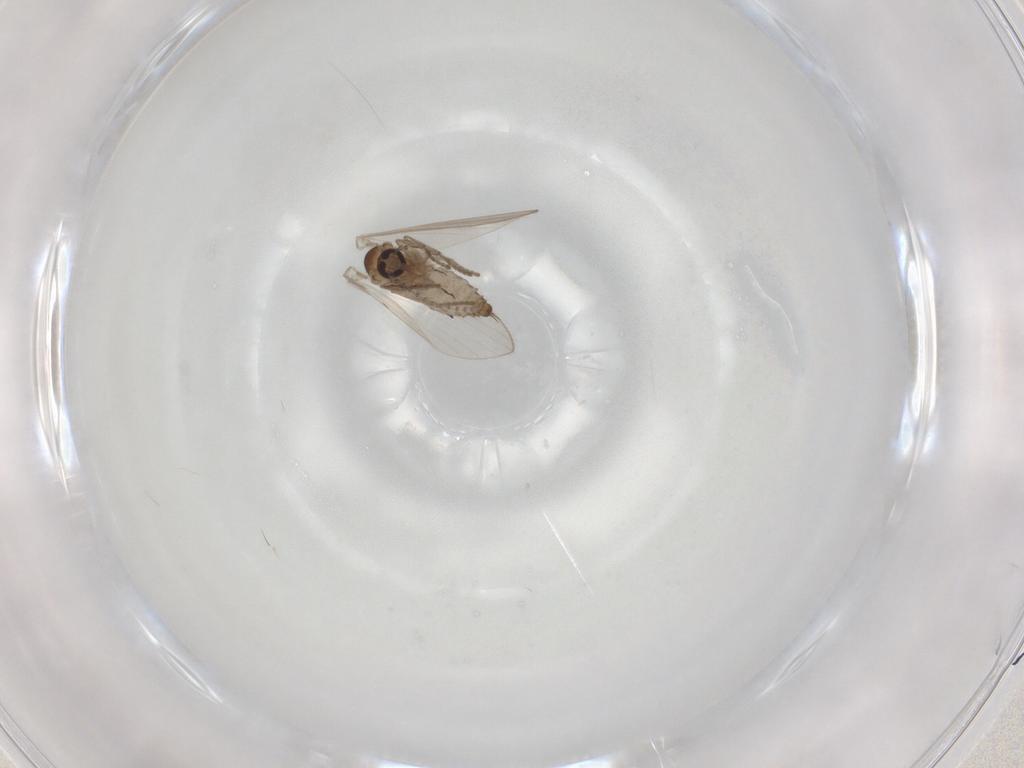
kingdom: Animalia
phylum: Arthropoda
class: Insecta
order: Diptera
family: Psychodidae
